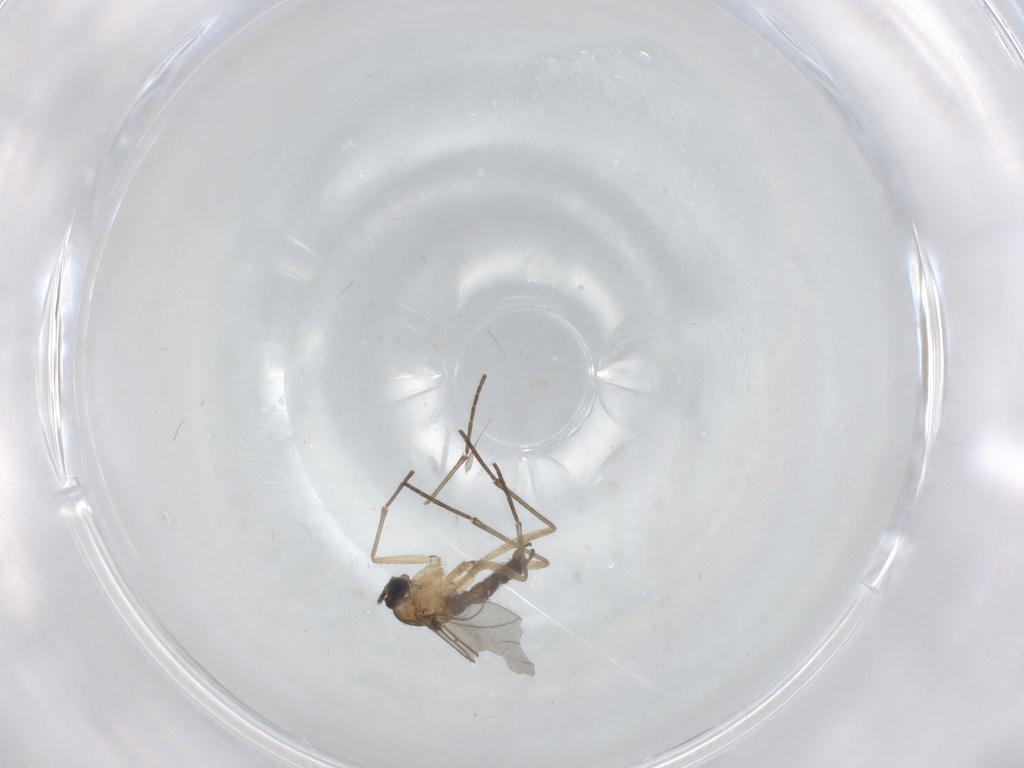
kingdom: Animalia
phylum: Arthropoda
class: Insecta
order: Diptera
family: Sciaridae
